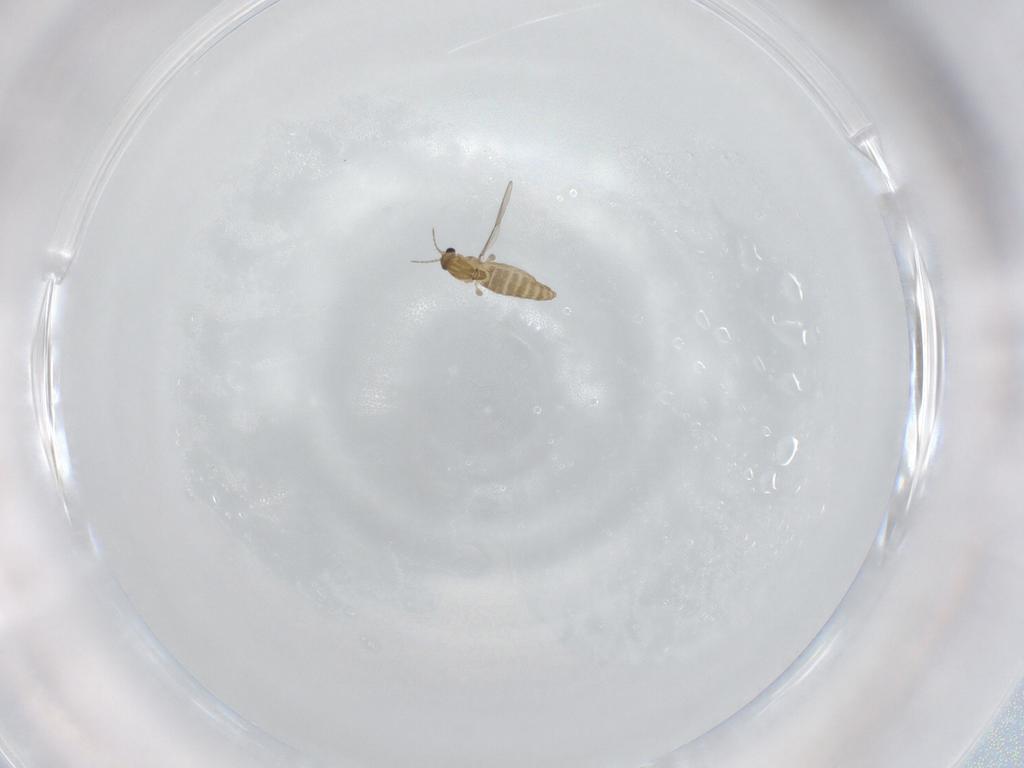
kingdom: Animalia
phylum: Arthropoda
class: Insecta
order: Diptera
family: Chironomidae
